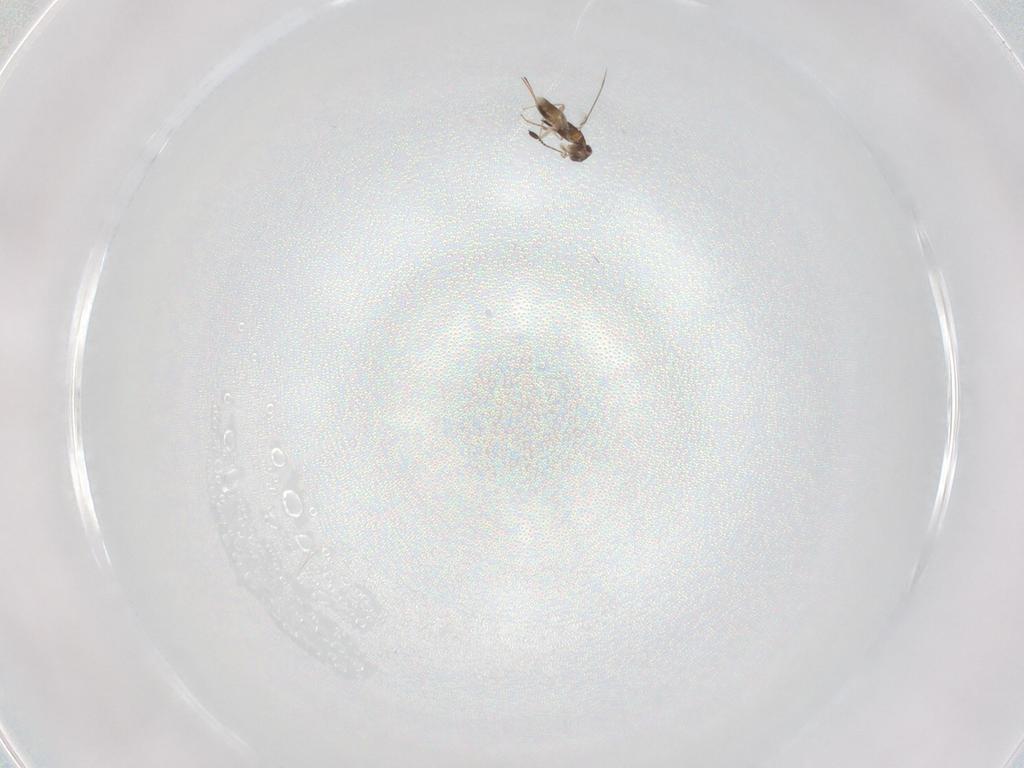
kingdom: Animalia
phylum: Arthropoda
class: Insecta
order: Hymenoptera
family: Mymaridae
